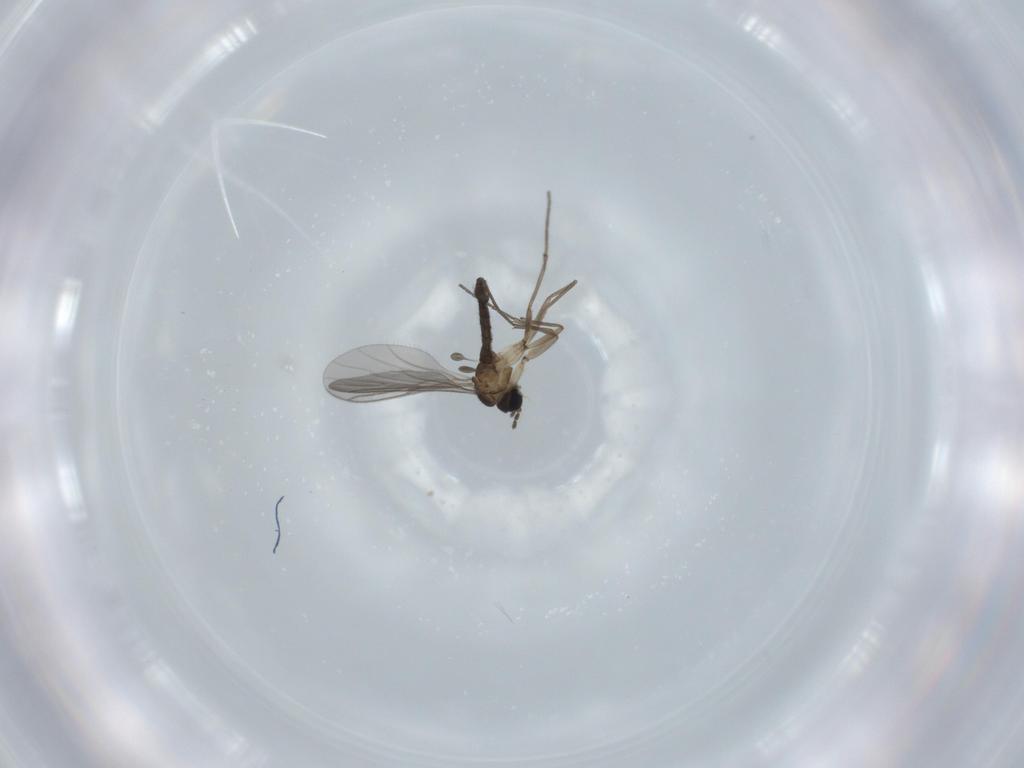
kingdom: Animalia
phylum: Arthropoda
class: Insecta
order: Diptera
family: Sciaridae
